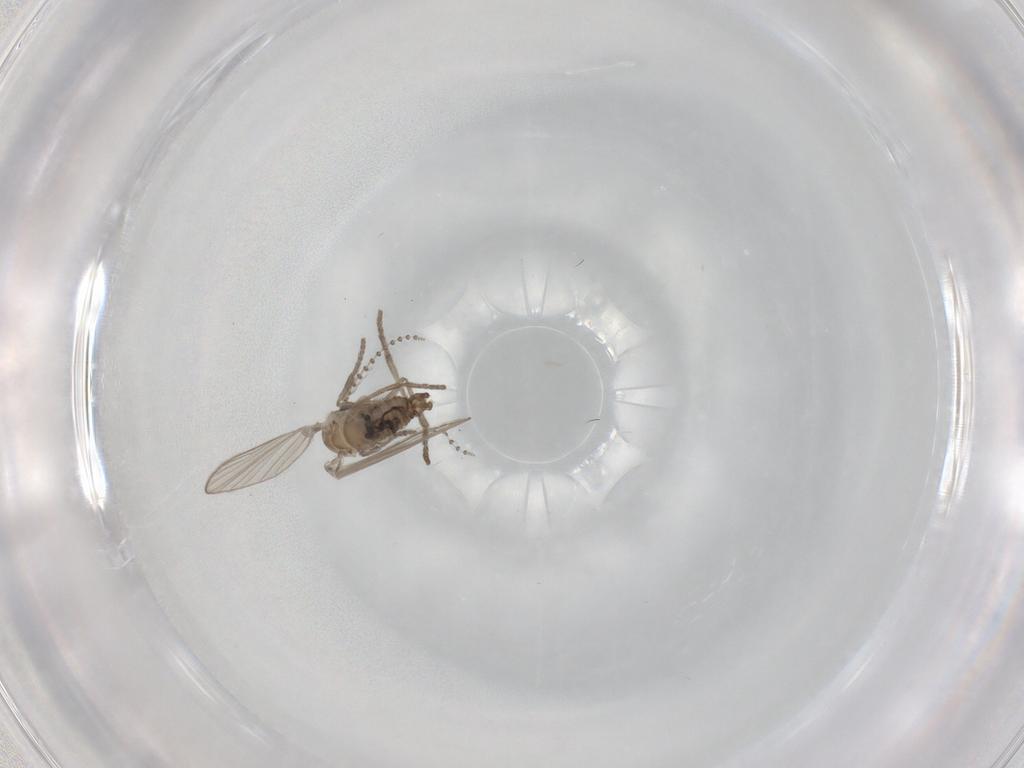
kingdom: Animalia
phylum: Arthropoda
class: Insecta
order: Diptera
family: Psychodidae
